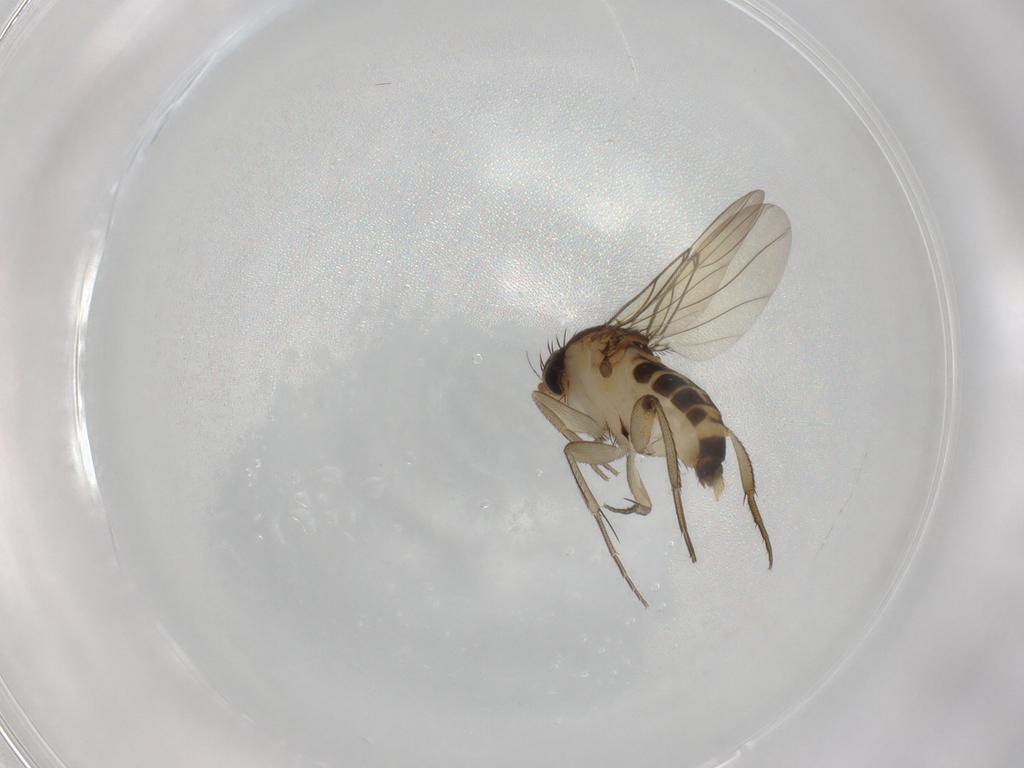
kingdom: Animalia
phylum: Arthropoda
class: Insecta
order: Diptera
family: Phoridae
